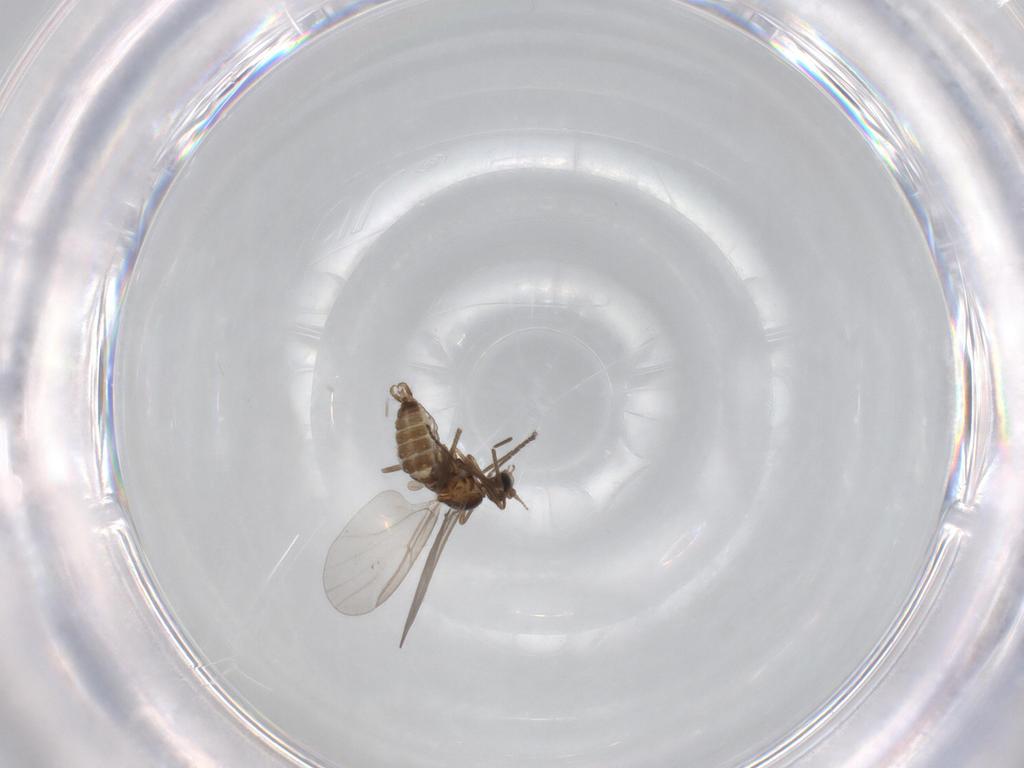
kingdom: Animalia
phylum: Arthropoda
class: Insecta
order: Diptera
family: Cecidomyiidae
